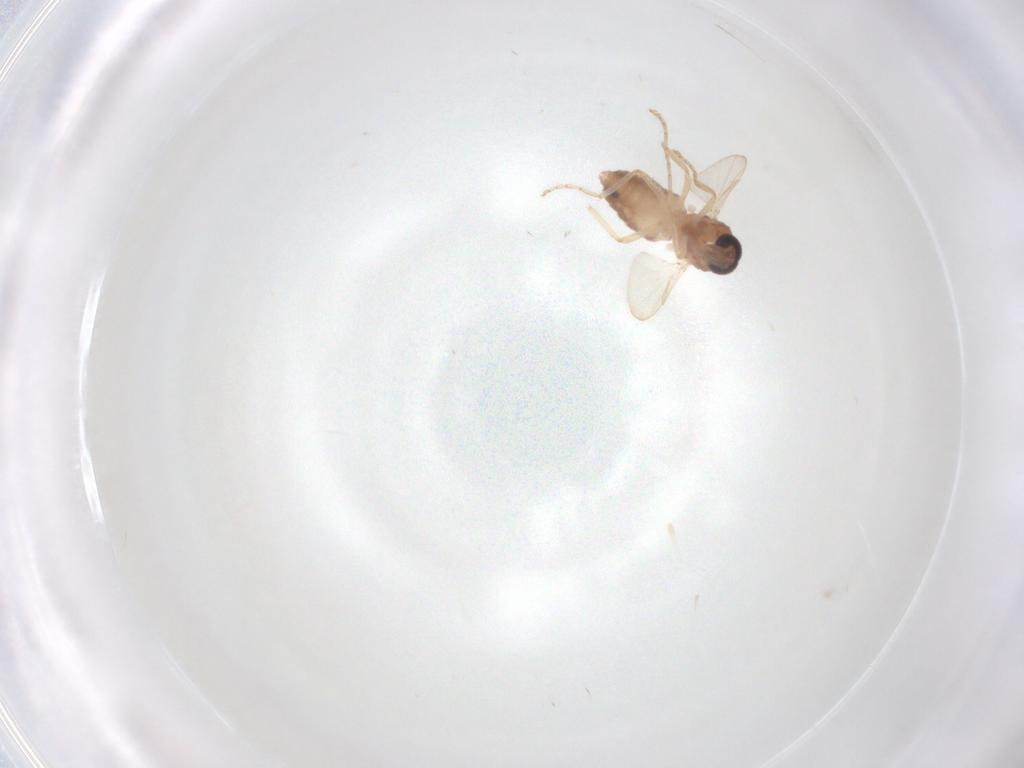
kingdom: Animalia
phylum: Arthropoda
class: Insecta
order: Diptera
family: Ceratopogonidae
